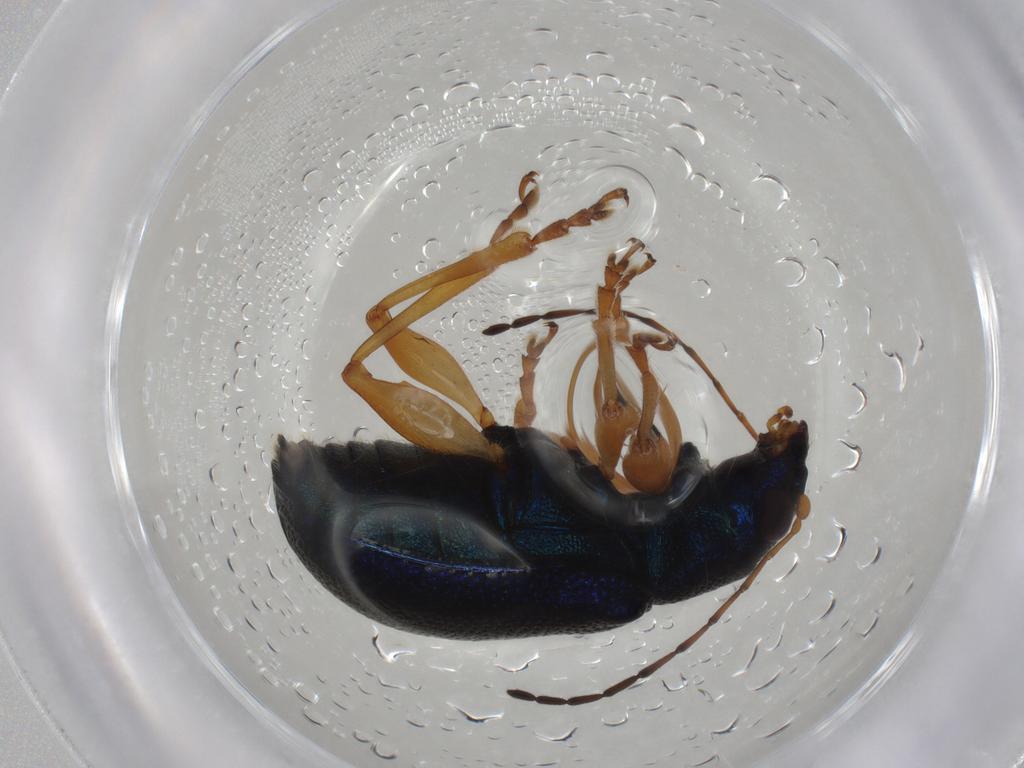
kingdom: Animalia
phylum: Arthropoda
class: Insecta
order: Coleoptera
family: Chrysomelidae
